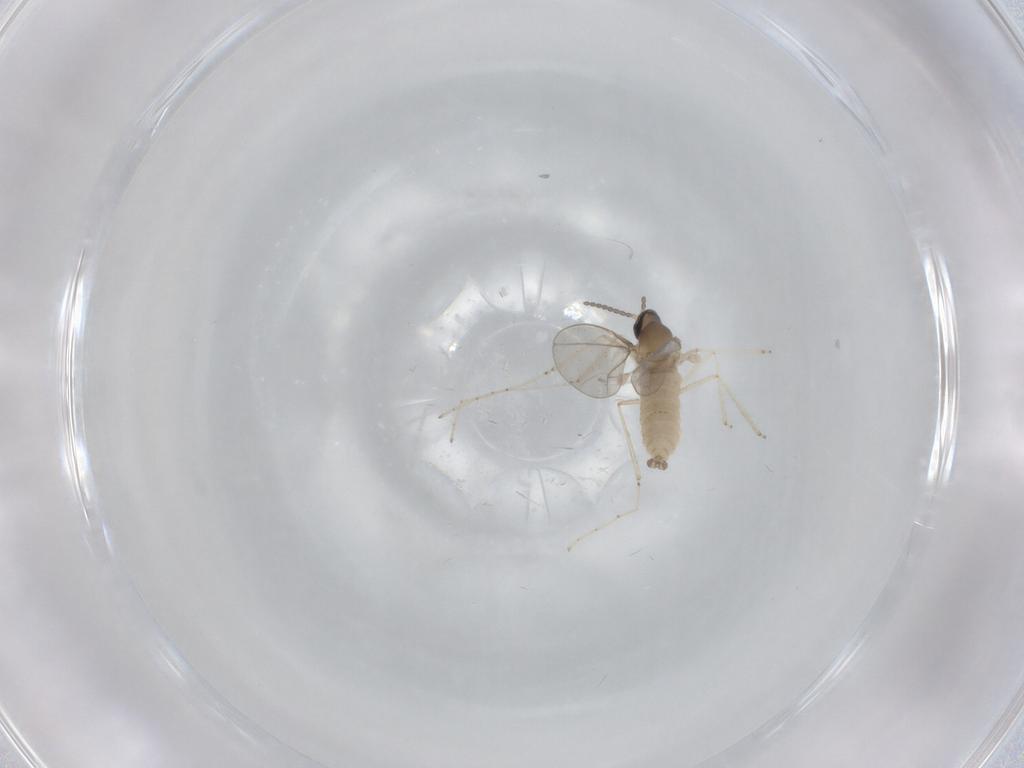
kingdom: Animalia
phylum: Arthropoda
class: Insecta
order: Diptera
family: Cecidomyiidae
